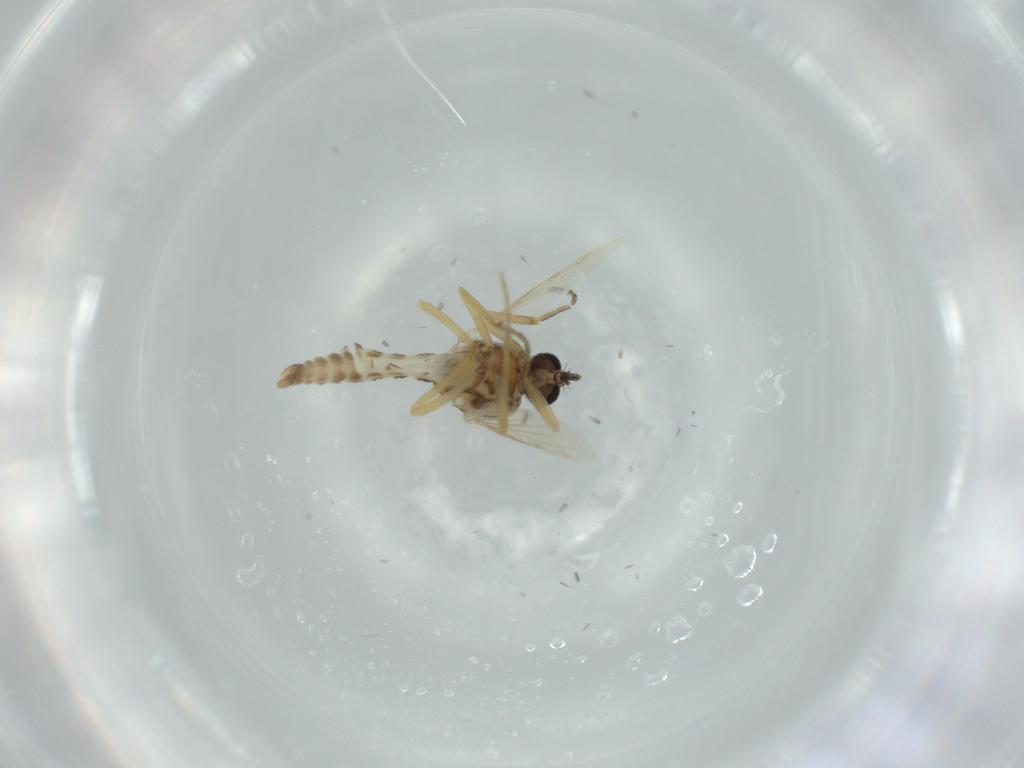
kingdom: Animalia
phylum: Arthropoda
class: Insecta
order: Diptera
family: Ceratopogonidae
